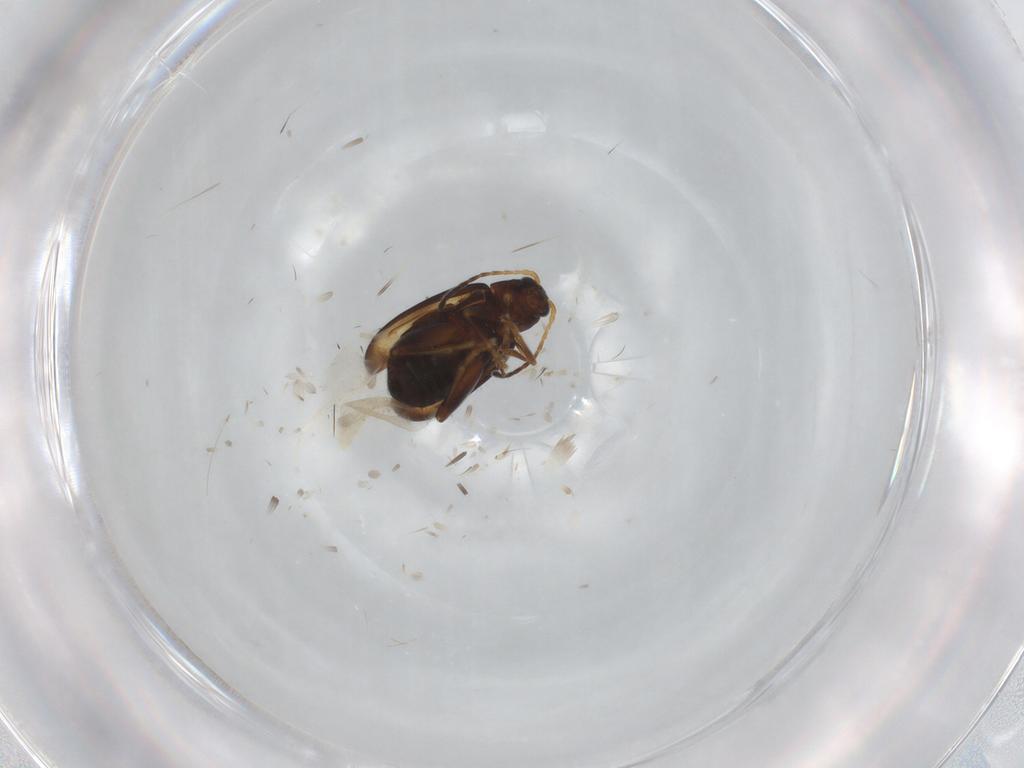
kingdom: Animalia
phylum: Arthropoda
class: Insecta
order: Coleoptera
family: Chrysomelidae
